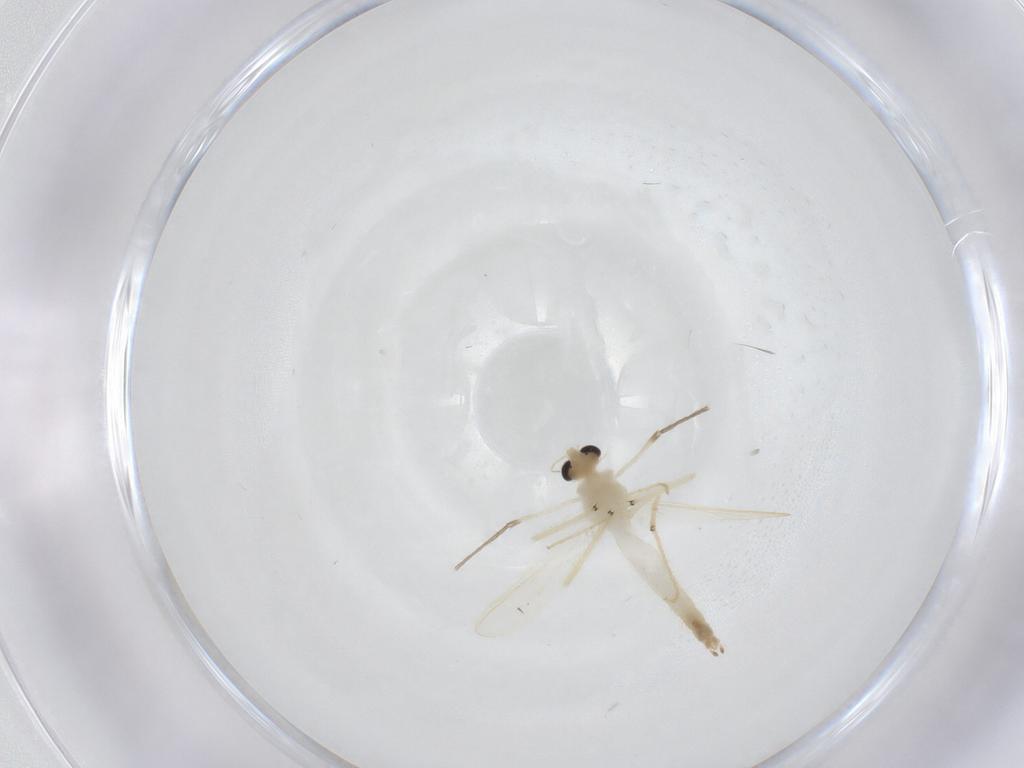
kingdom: Animalia
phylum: Arthropoda
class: Insecta
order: Diptera
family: Chironomidae
